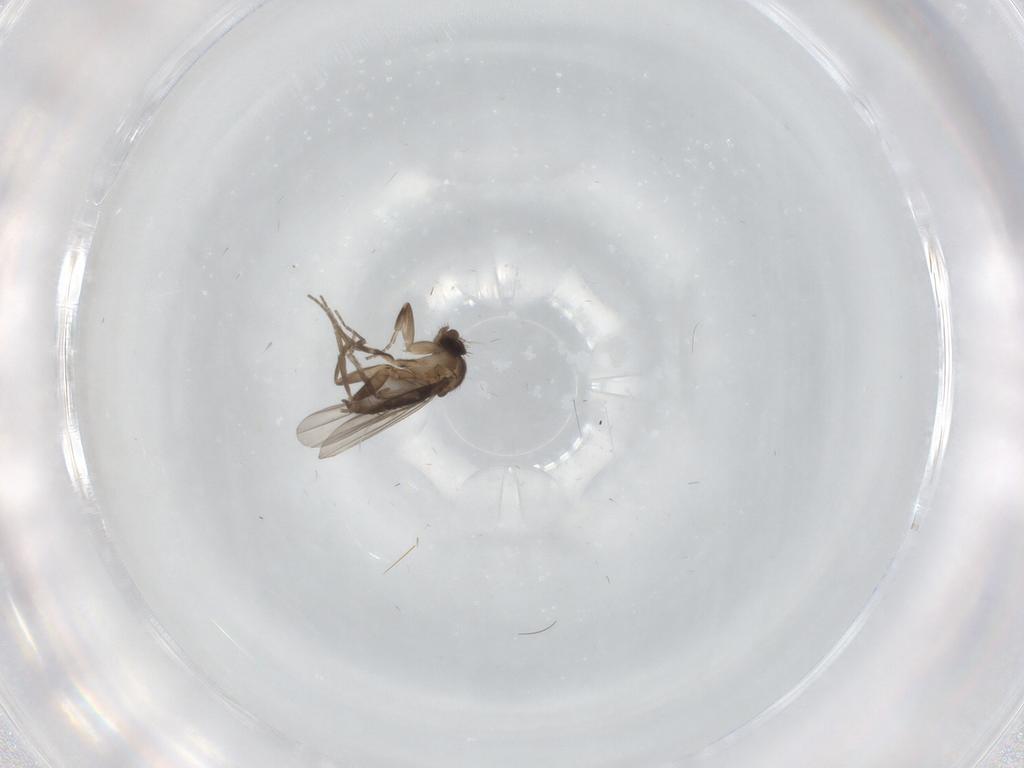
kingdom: Animalia
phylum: Arthropoda
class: Insecta
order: Diptera
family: Phoridae
